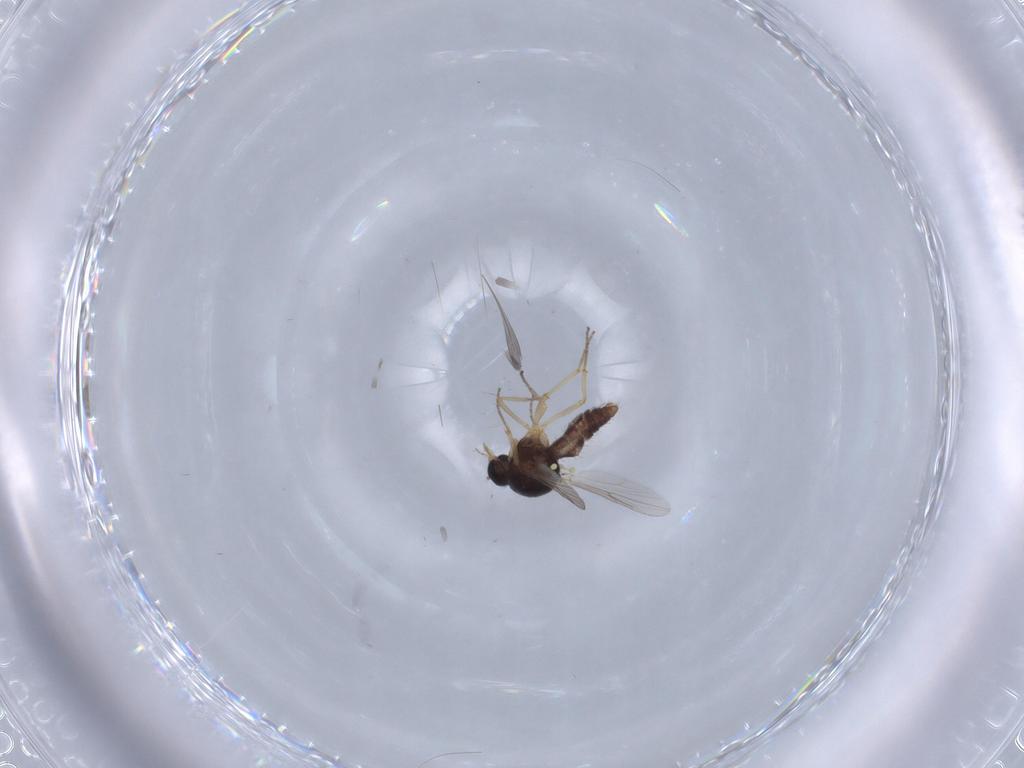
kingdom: Animalia
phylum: Arthropoda
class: Insecta
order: Diptera
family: Ceratopogonidae
